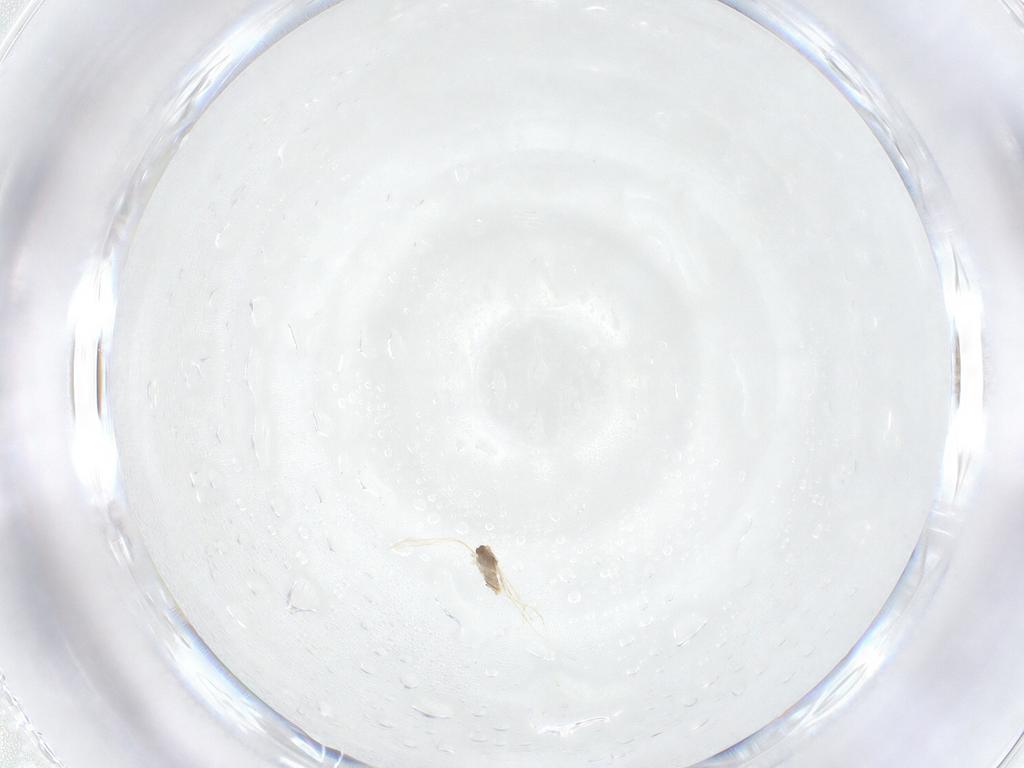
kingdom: Animalia
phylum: Arthropoda
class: Insecta
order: Diptera
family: Cecidomyiidae
